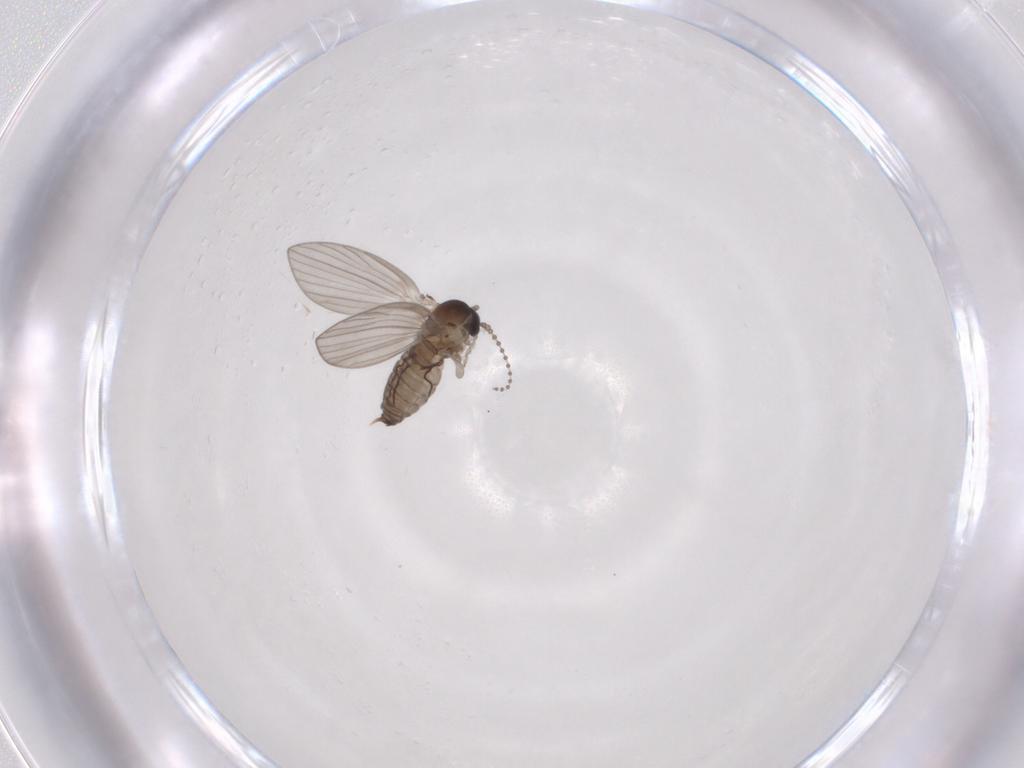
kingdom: Animalia
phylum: Arthropoda
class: Insecta
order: Diptera
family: Psychodidae
